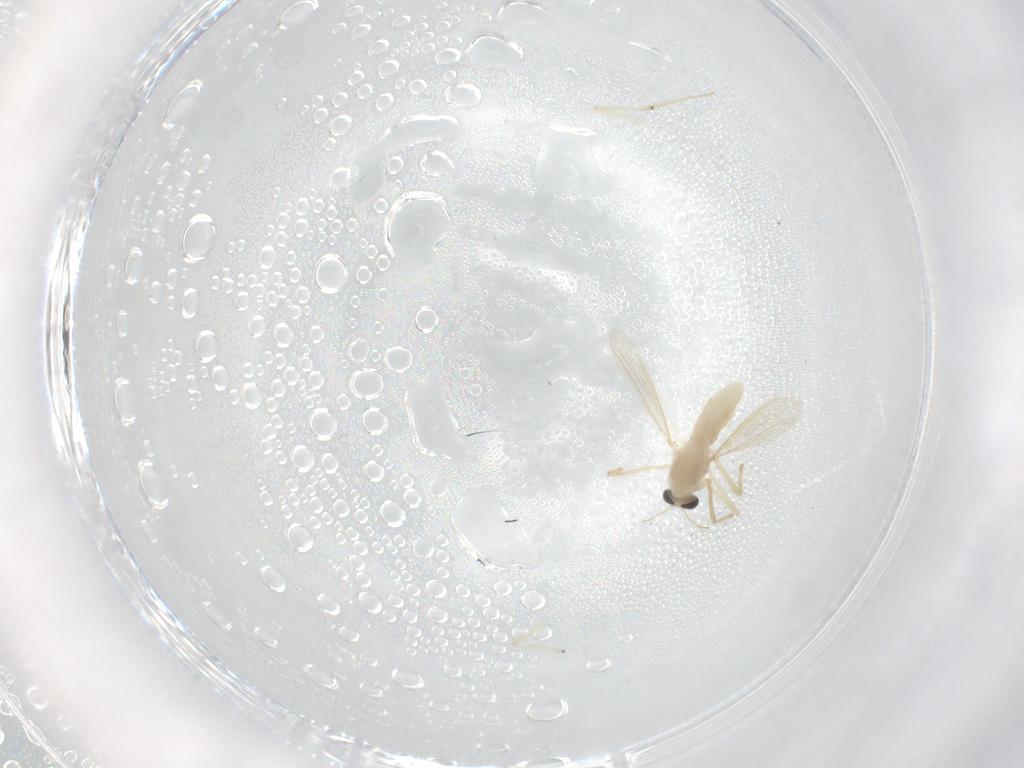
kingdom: Animalia
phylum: Arthropoda
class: Insecta
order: Diptera
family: Chironomidae
